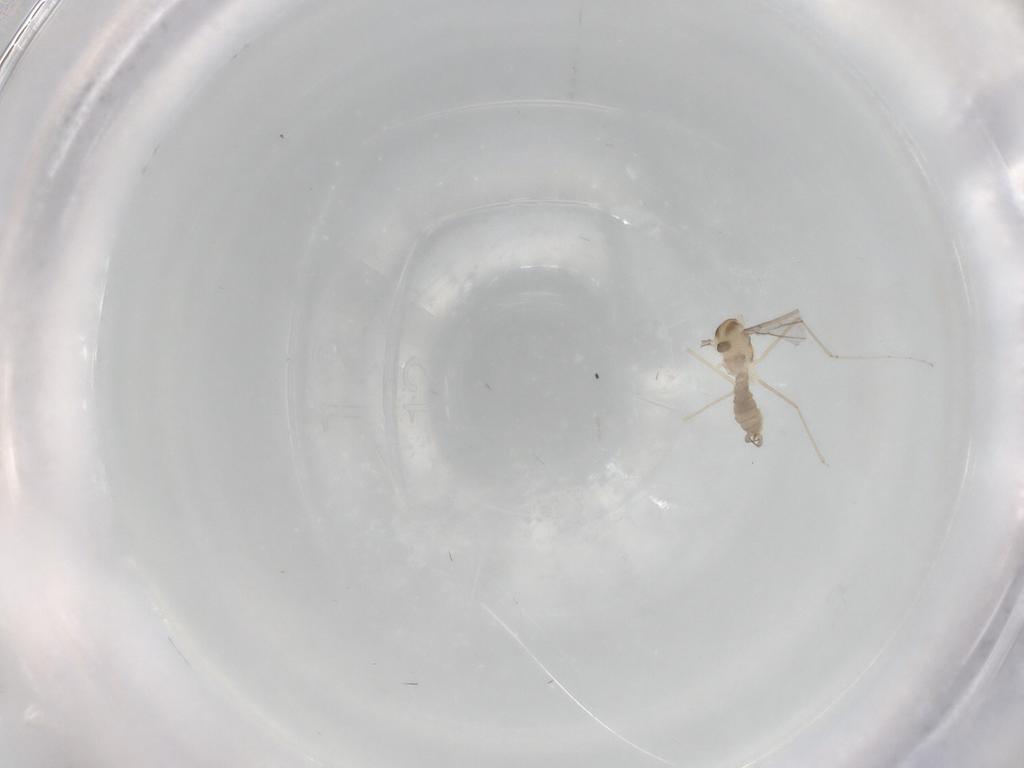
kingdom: Animalia
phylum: Arthropoda
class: Insecta
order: Diptera
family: Cecidomyiidae
